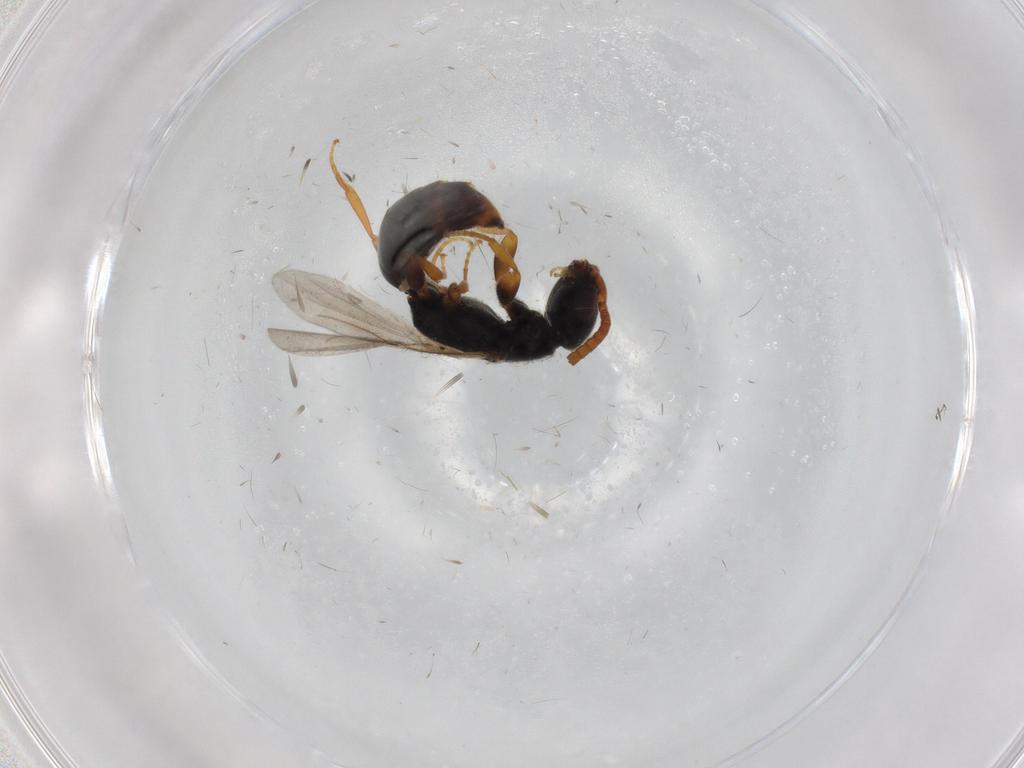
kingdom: Animalia
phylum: Arthropoda
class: Insecta
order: Hymenoptera
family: Bethylidae
